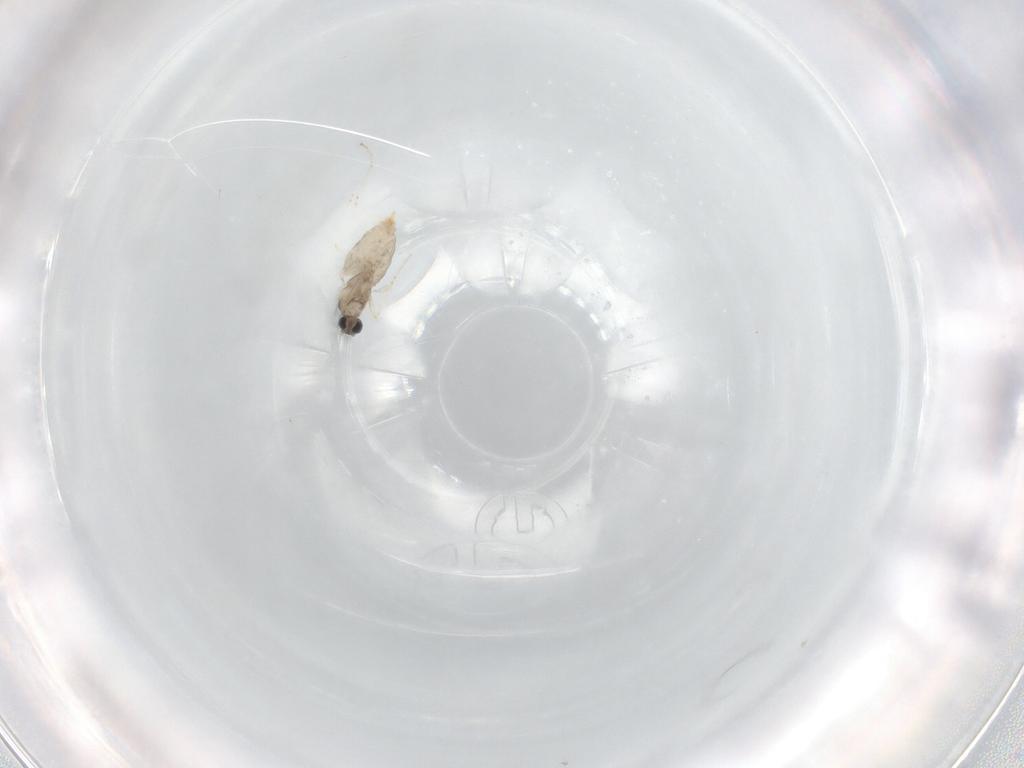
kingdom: Animalia
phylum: Arthropoda
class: Insecta
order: Diptera
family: Cecidomyiidae
